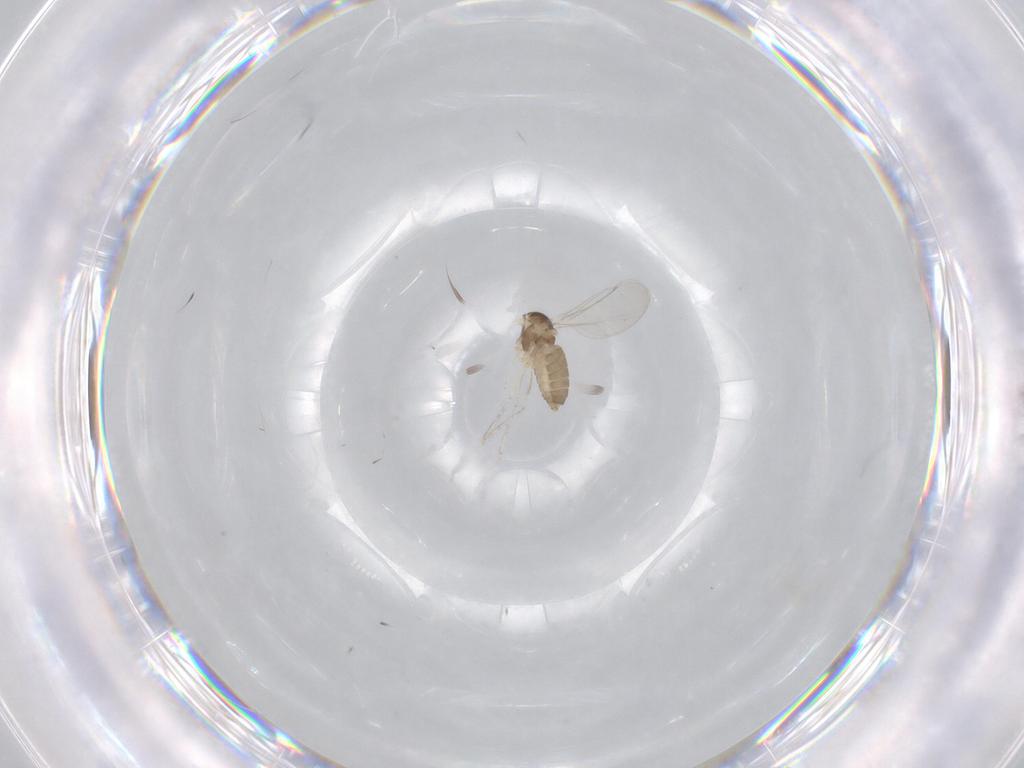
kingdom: Animalia
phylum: Arthropoda
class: Insecta
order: Diptera
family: Cecidomyiidae
